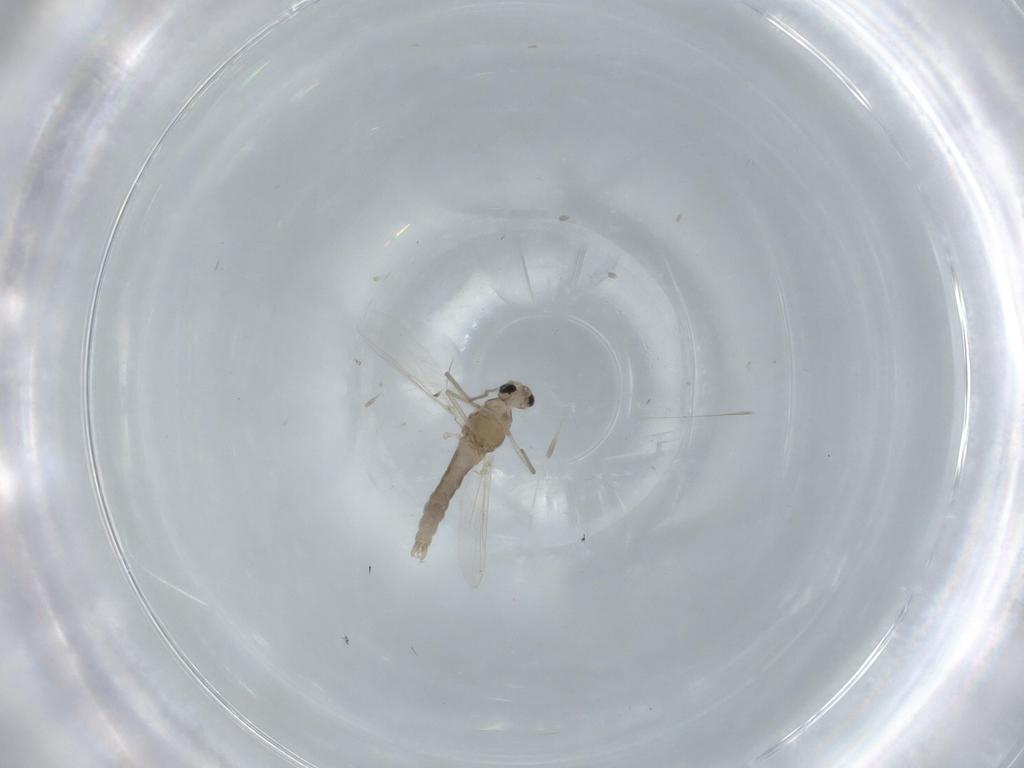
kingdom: Animalia
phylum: Arthropoda
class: Insecta
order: Diptera
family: Chironomidae
